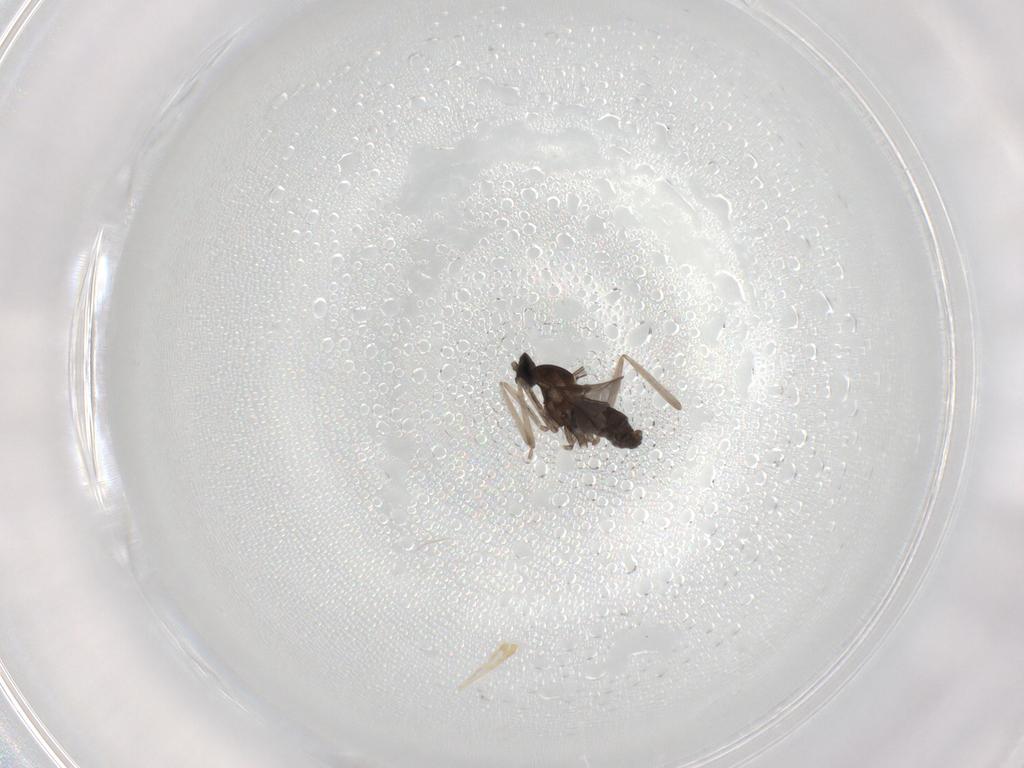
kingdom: Animalia
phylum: Arthropoda
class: Insecta
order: Diptera
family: Cecidomyiidae
